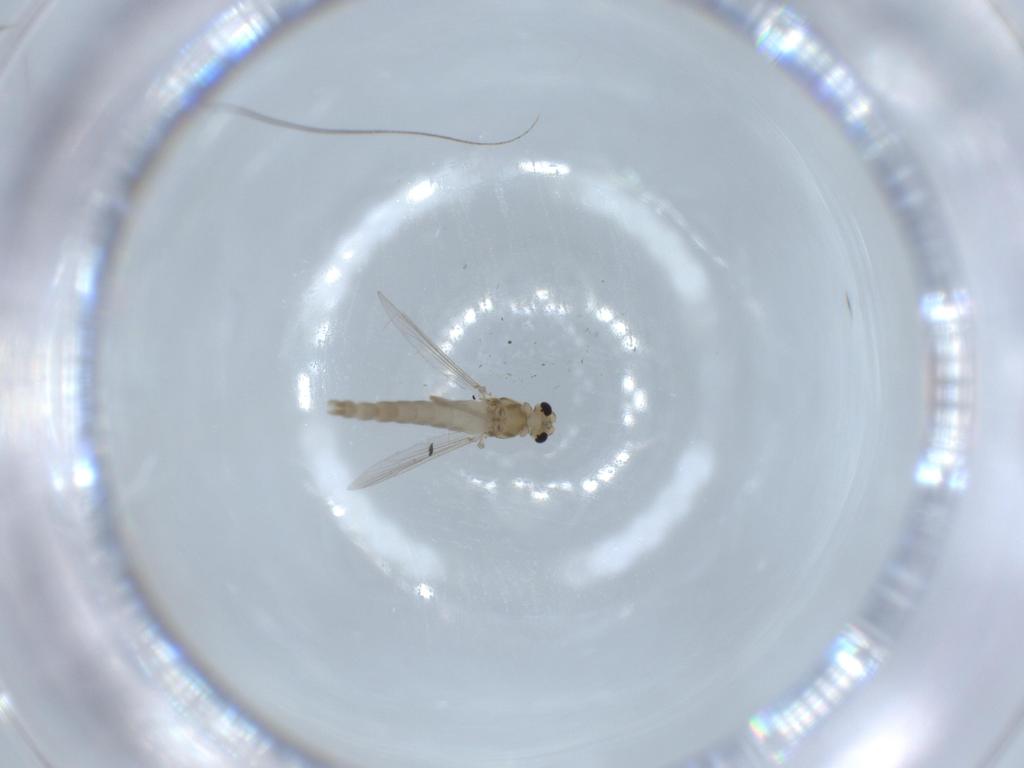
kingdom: Animalia
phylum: Arthropoda
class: Insecta
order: Diptera
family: Chironomidae
